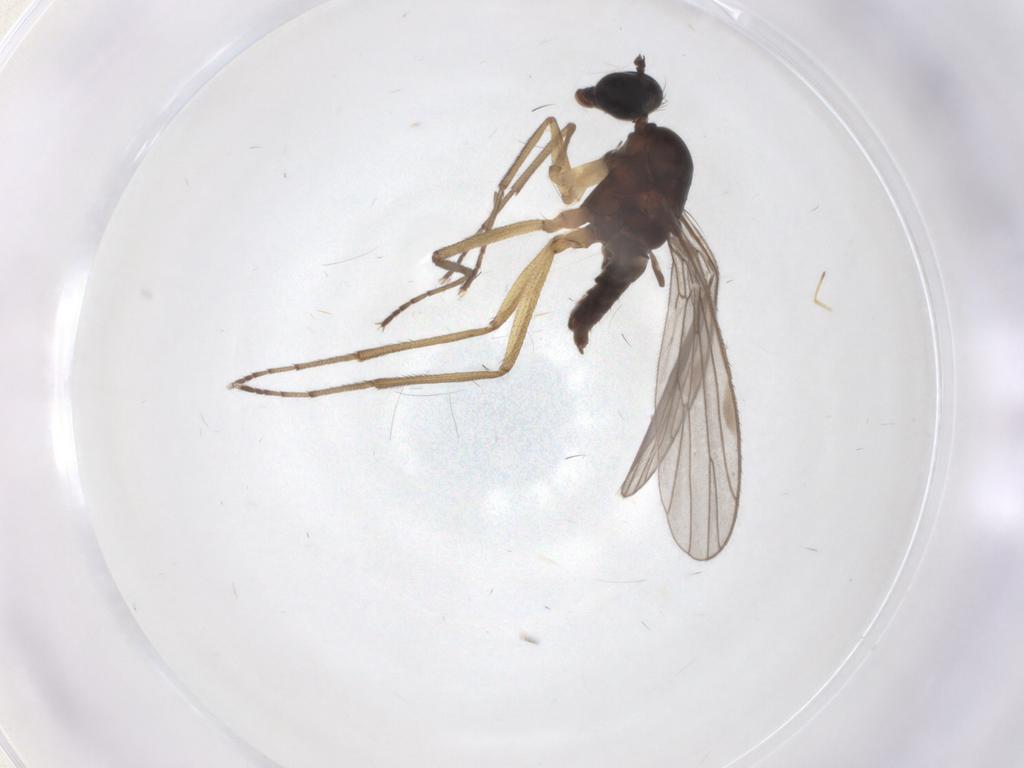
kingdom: Animalia
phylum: Arthropoda
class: Insecta
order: Diptera
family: Empididae
